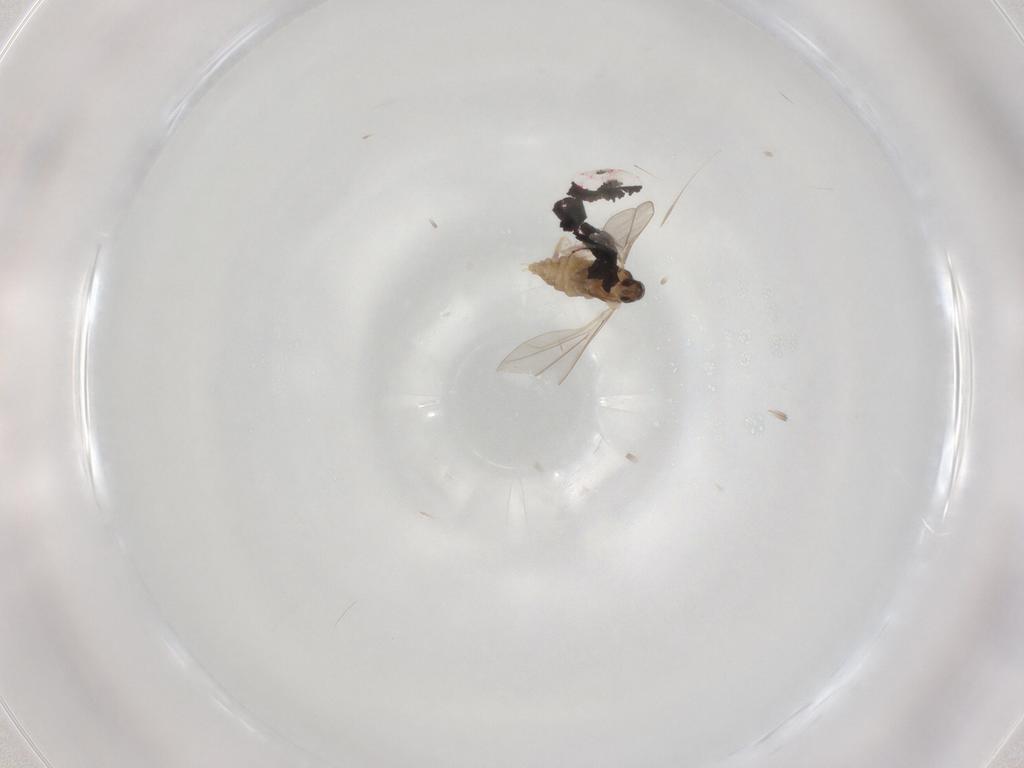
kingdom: Animalia
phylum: Arthropoda
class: Insecta
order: Diptera
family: Cecidomyiidae
